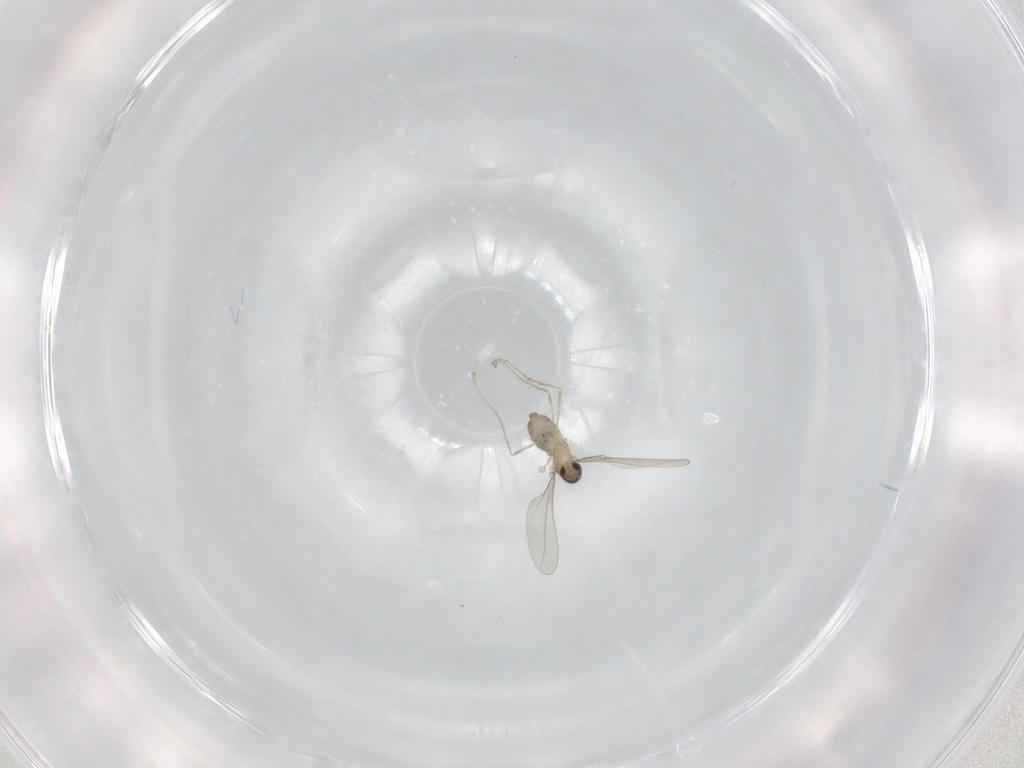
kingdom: Animalia
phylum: Arthropoda
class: Insecta
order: Diptera
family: Cecidomyiidae
